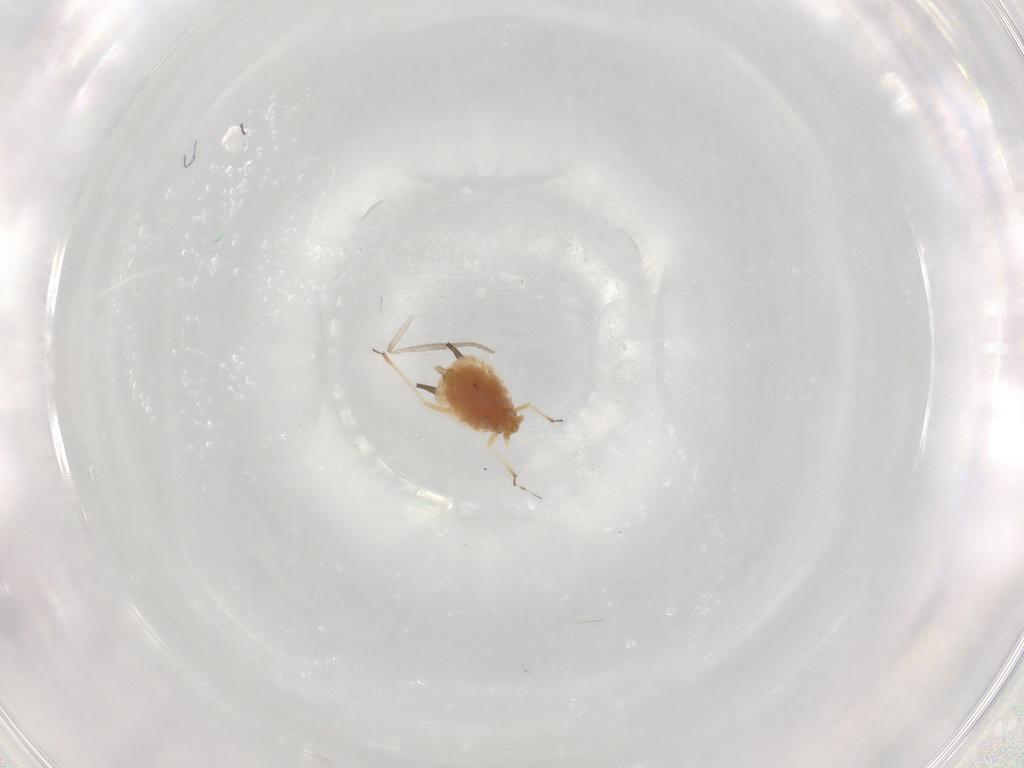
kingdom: Animalia
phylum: Arthropoda
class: Insecta
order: Hemiptera
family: Aphididae
